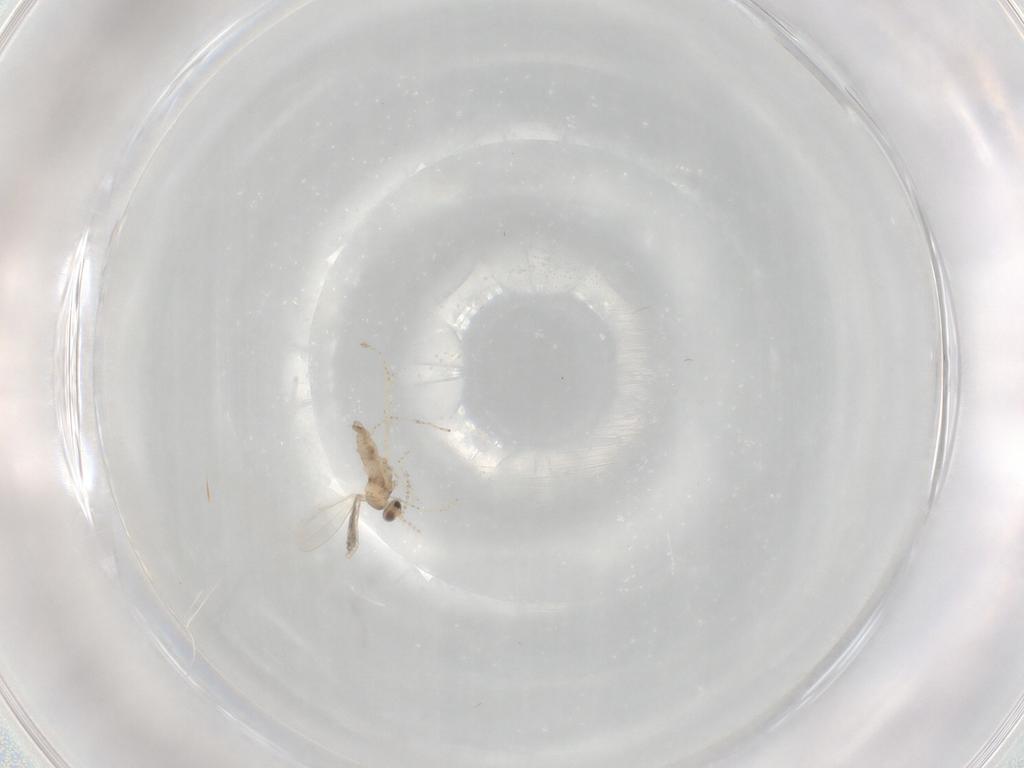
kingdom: Animalia
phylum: Arthropoda
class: Insecta
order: Diptera
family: Cecidomyiidae
